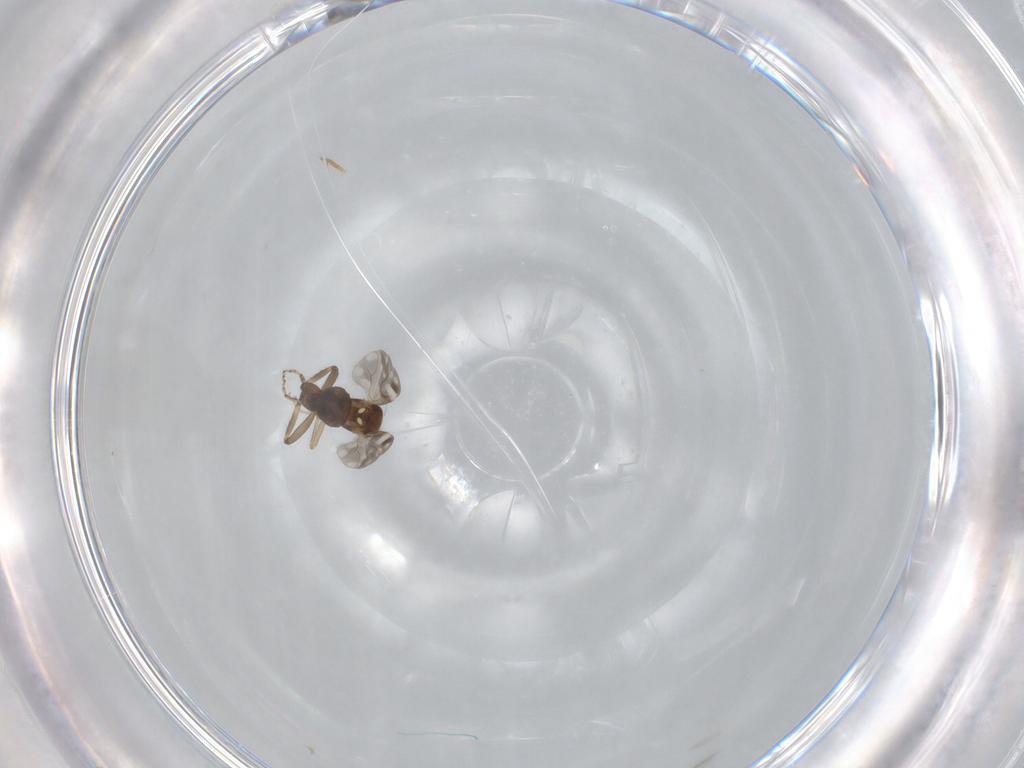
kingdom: Animalia
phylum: Arthropoda
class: Insecta
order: Diptera
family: Ceratopogonidae
